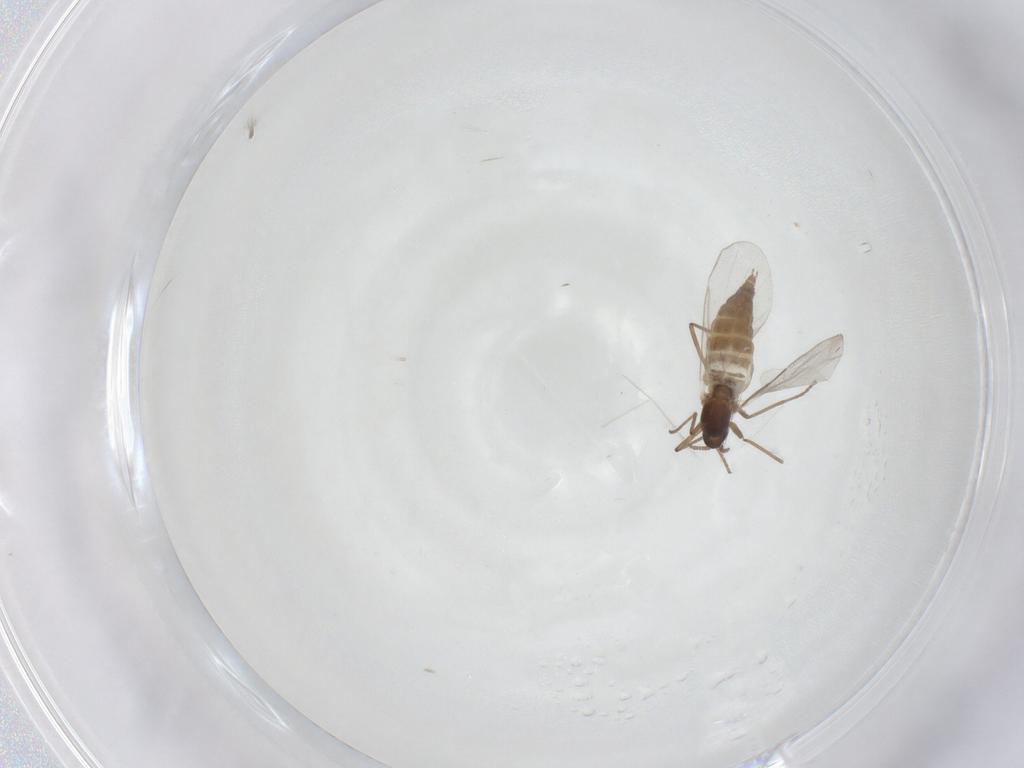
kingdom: Animalia
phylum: Arthropoda
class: Insecta
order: Diptera
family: Cecidomyiidae
